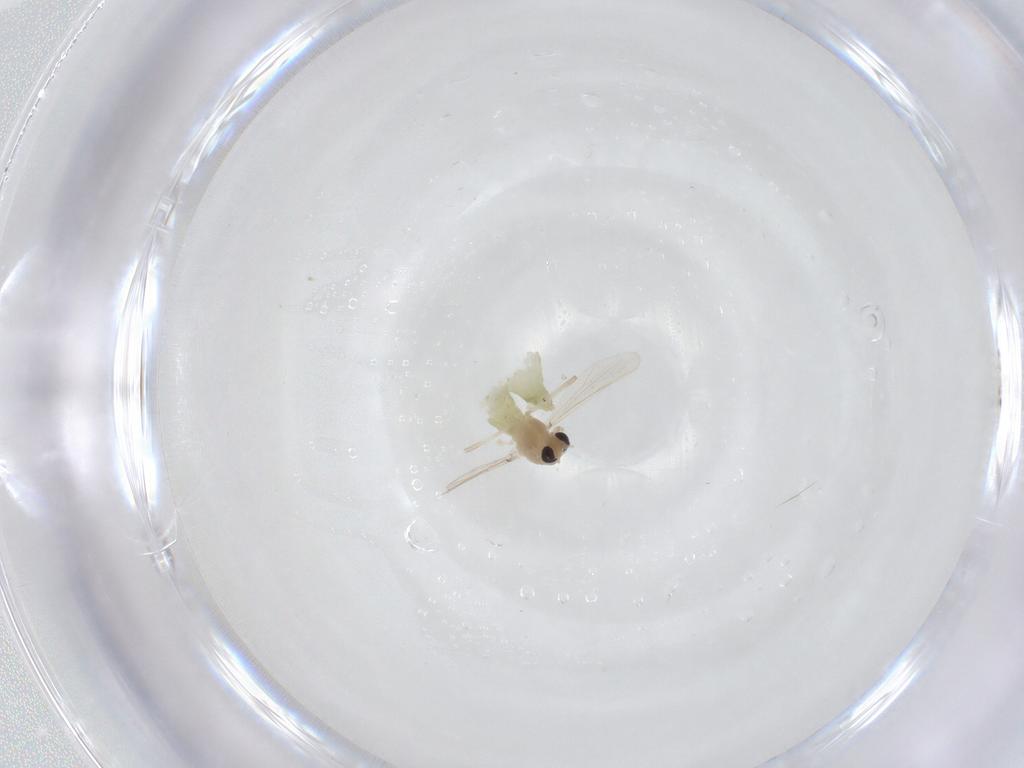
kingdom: Animalia
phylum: Arthropoda
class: Insecta
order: Diptera
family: Chironomidae
